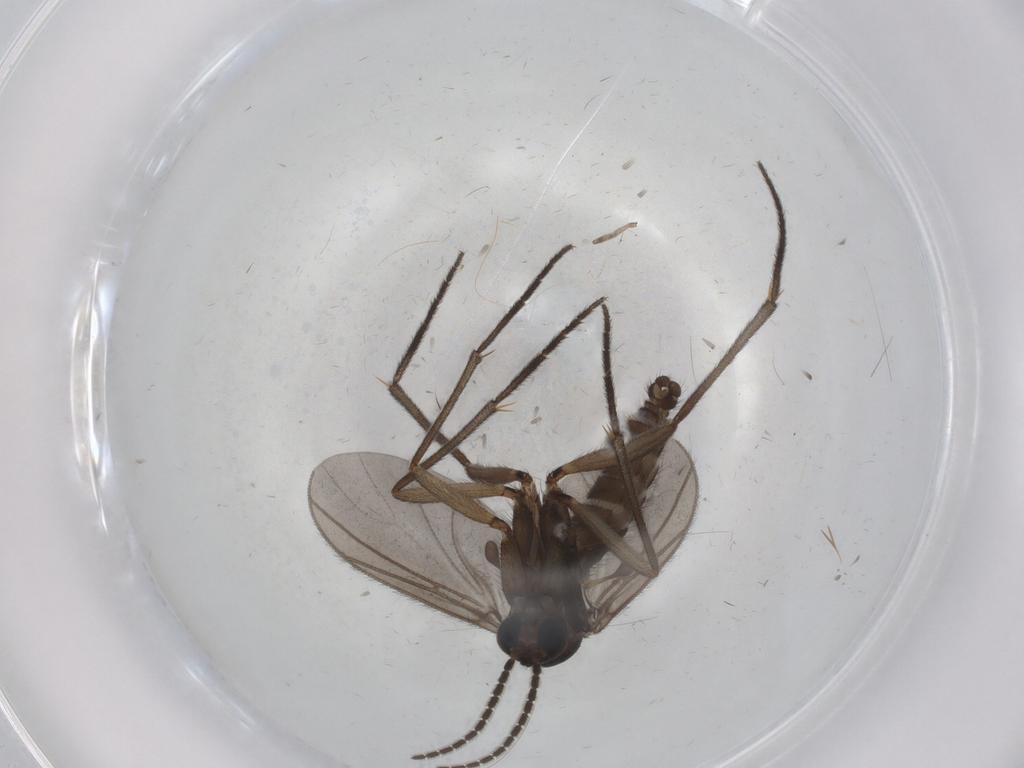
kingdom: Animalia
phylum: Arthropoda
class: Insecta
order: Diptera
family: Sciaridae
